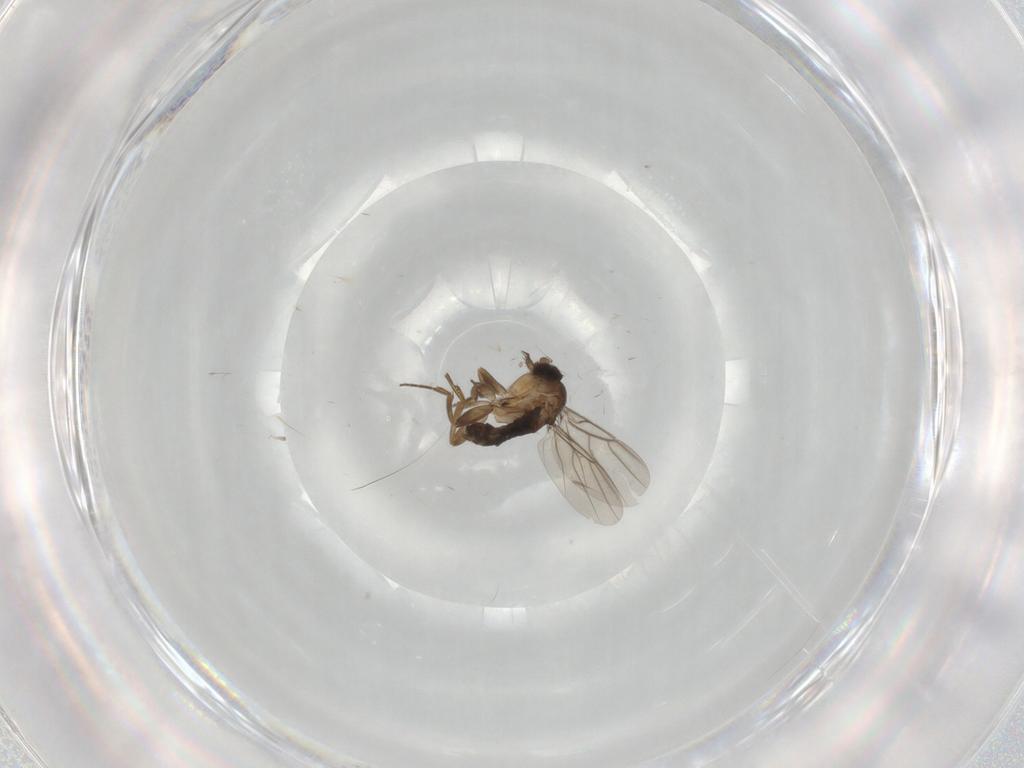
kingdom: Animalia
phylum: Arthropoda
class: Insecta
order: Diptera
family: Phoridae
